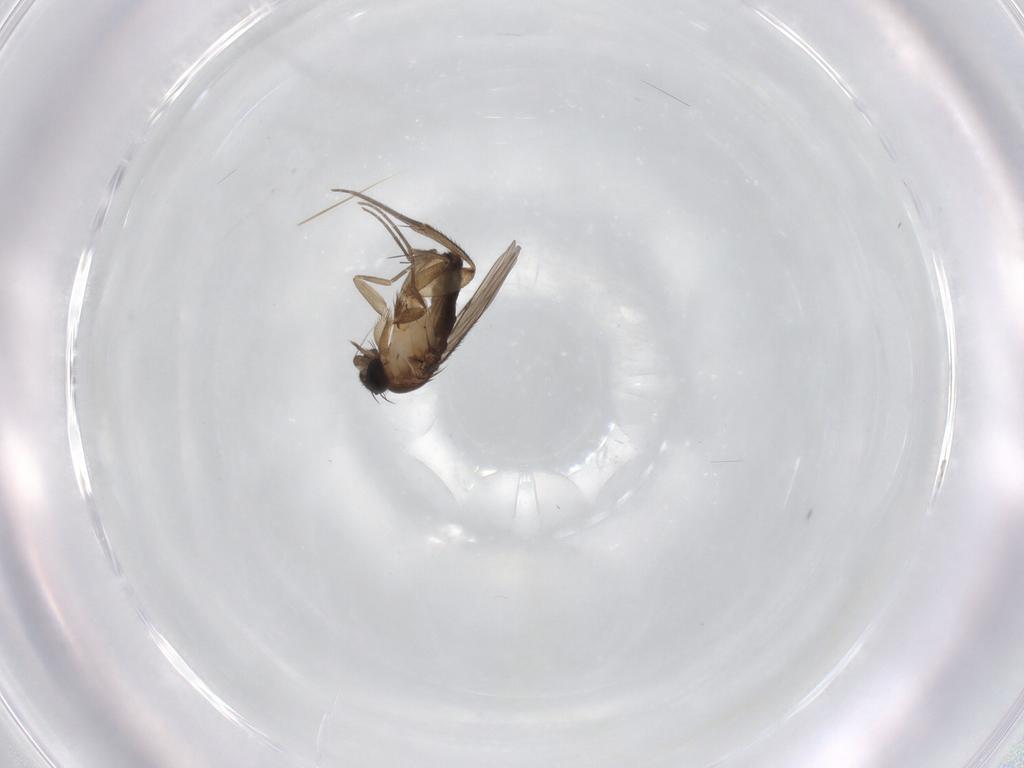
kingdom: Animalia
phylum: Arthropoda
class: Insecta
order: Diptera
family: Phoridae
